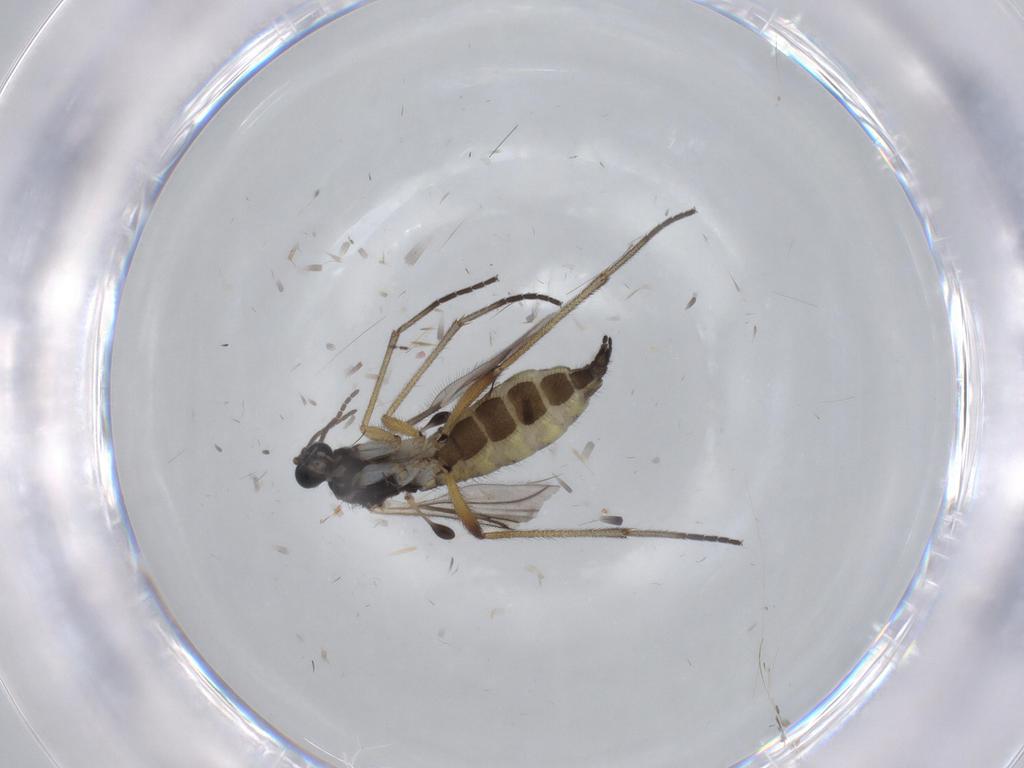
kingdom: Animalia
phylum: Arthropoda
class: Insecta
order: Diptera
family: Sciaridae
